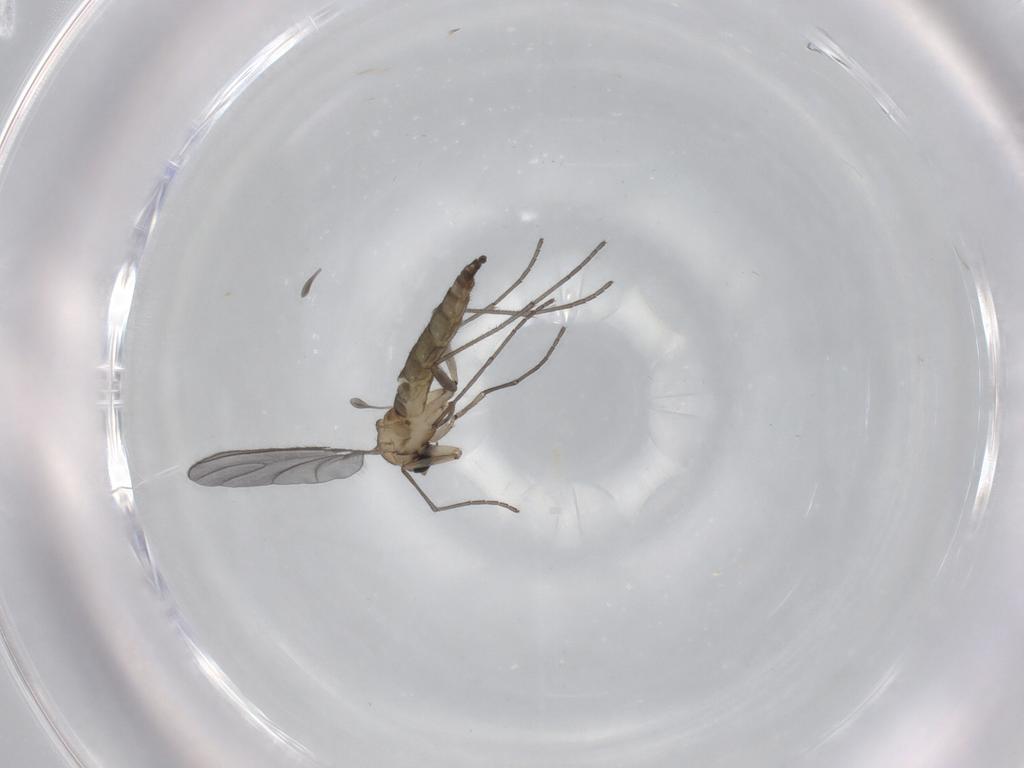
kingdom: Animalia
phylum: Arthropoda
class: Insecta
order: Diptera
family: Sciaridae
